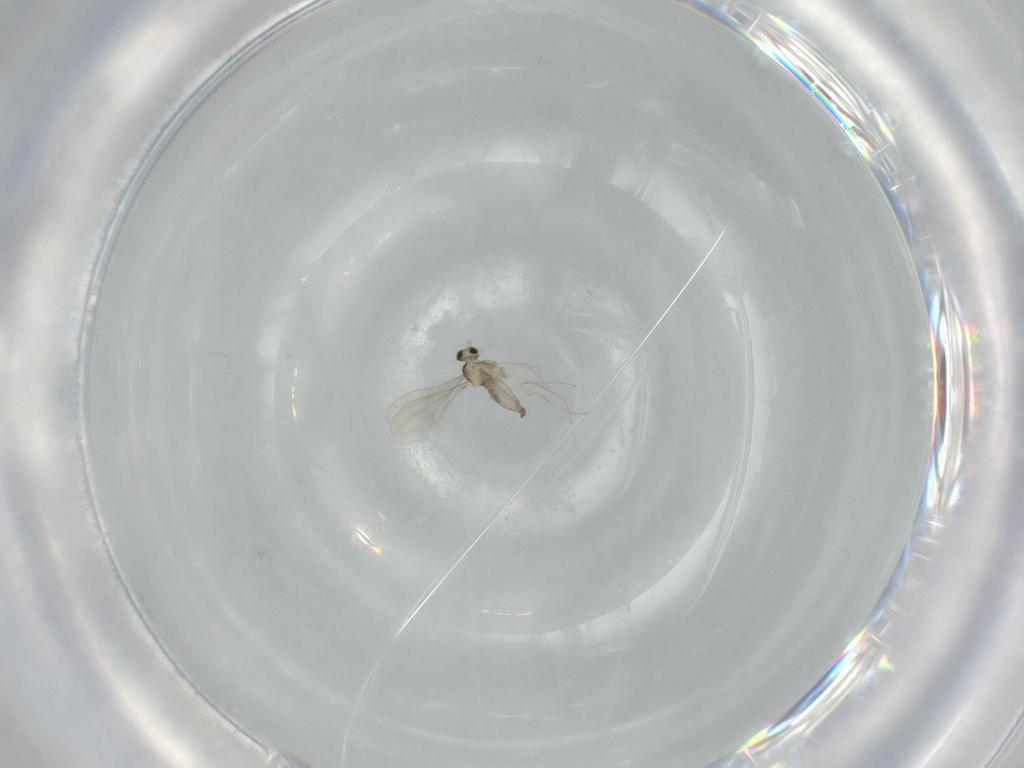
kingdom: Animalia
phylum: Arthropoda
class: Insecta
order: Diptera
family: Cecidomyiidae
